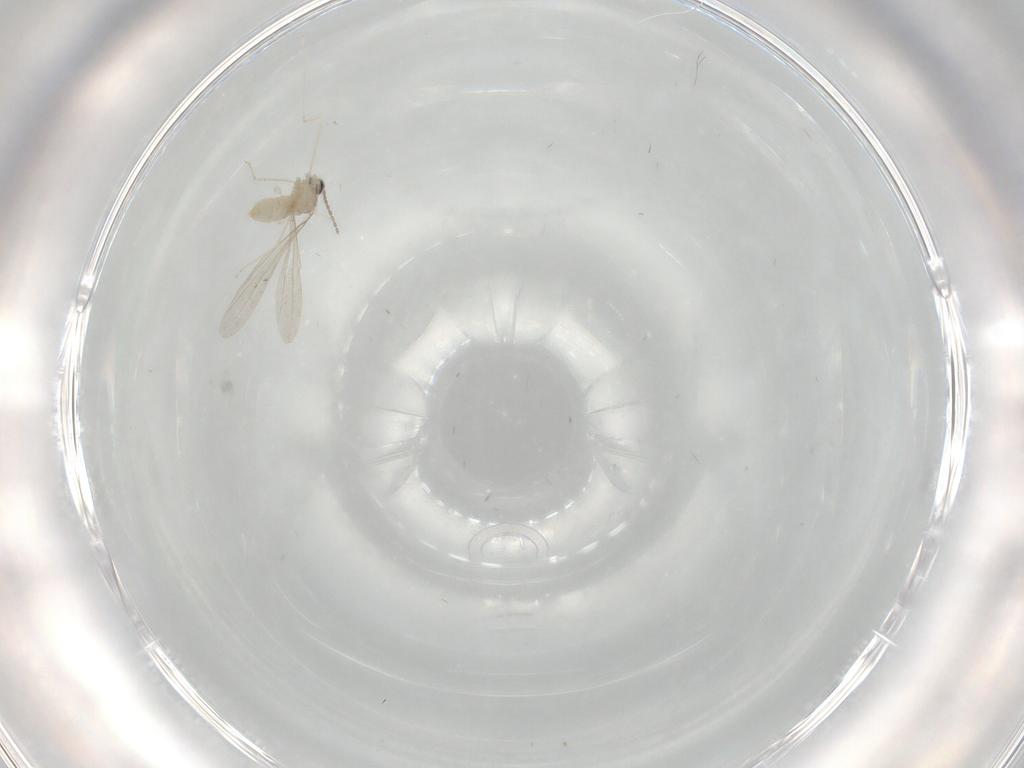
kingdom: Animalia
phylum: Arthropoda
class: Insecta
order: Diptera
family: Cecidomyiidae
